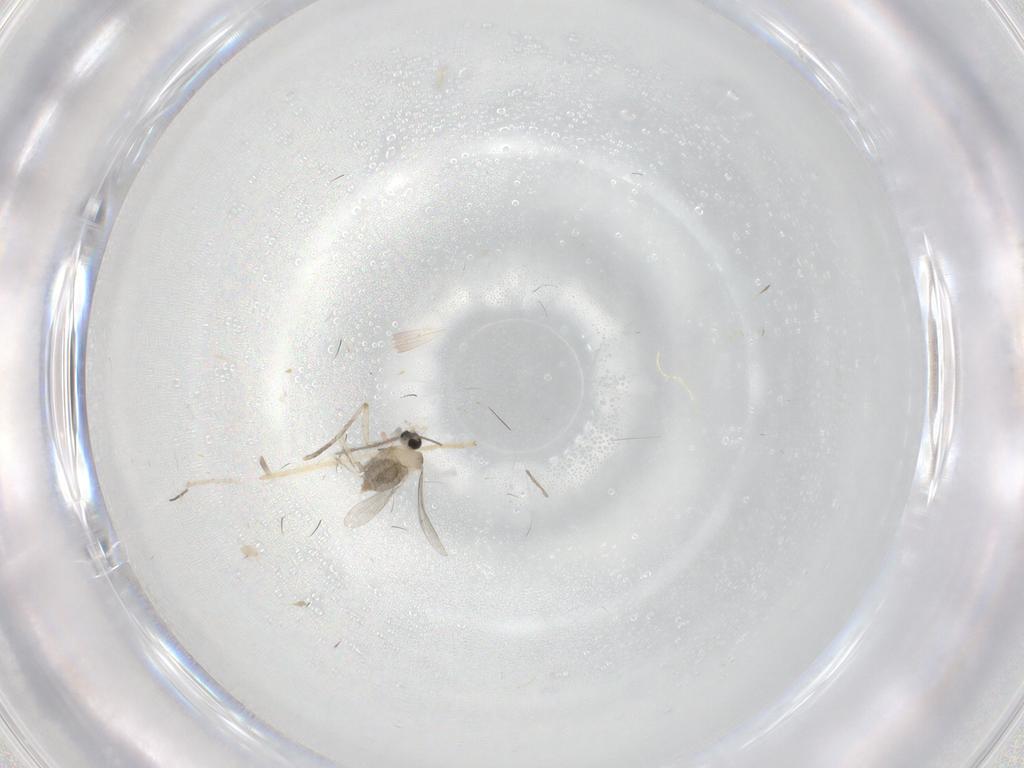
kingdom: Animalia
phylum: Arthropoda
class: Insecta
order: Diptera
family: Cecidomyiidae
